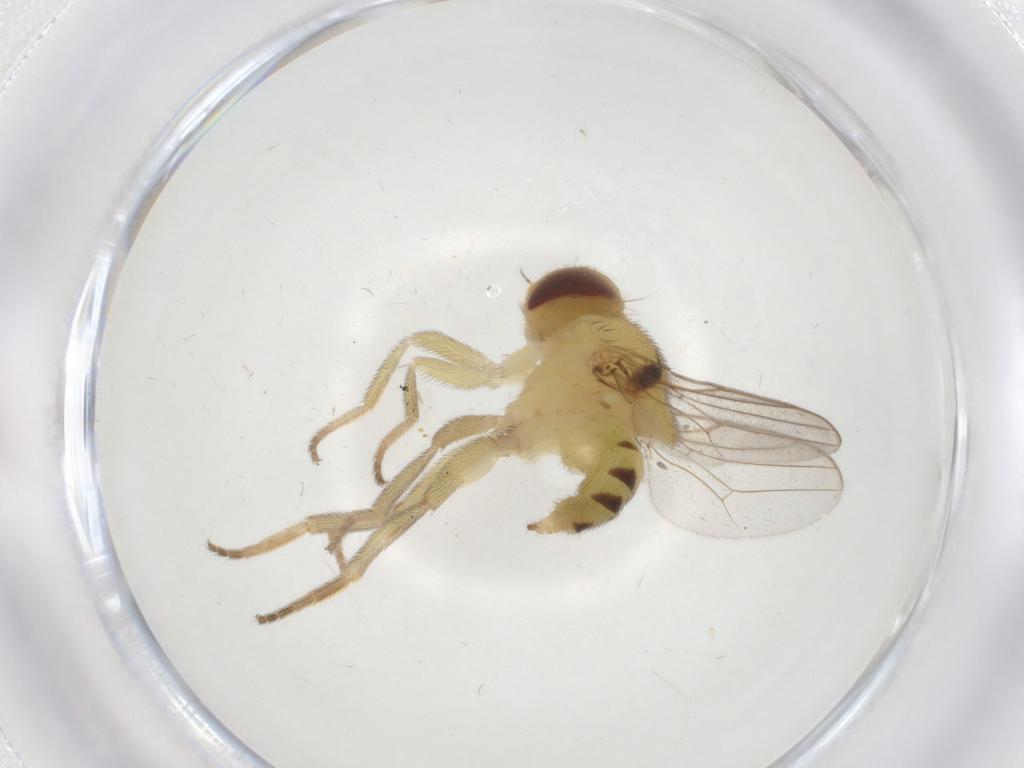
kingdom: Animalia
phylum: Arthropoda
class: Insecta
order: Diptera
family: Chloropidae
